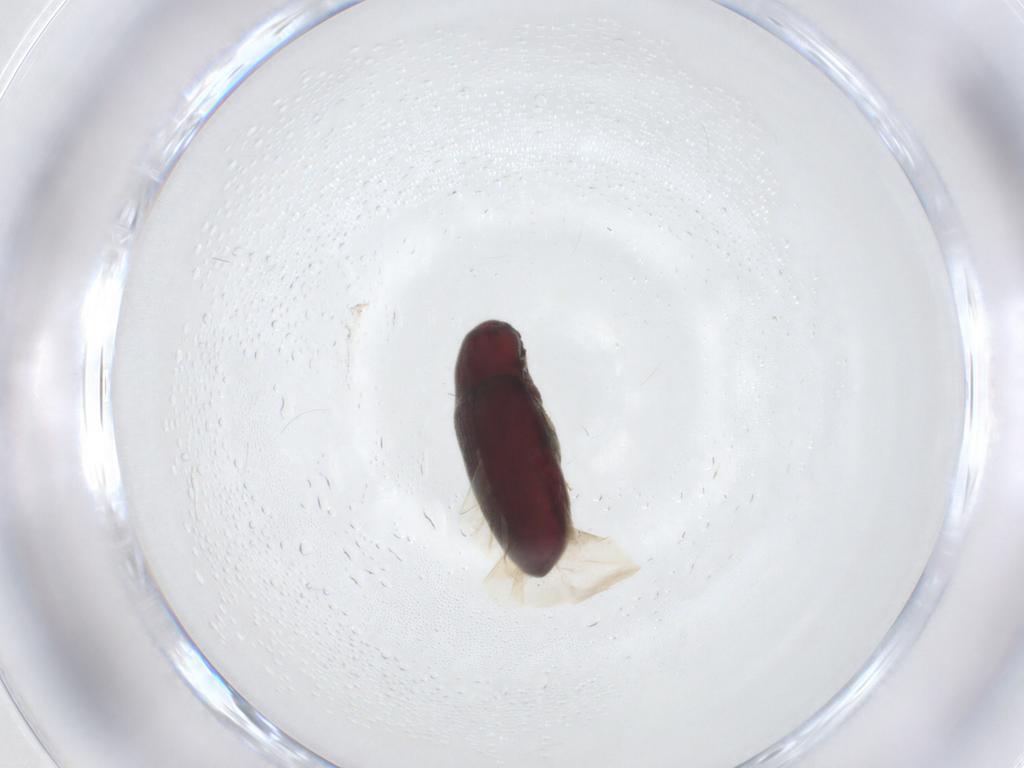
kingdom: Animalia
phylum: Arthropoda
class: Insecta
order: Coleoptera
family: Throscidae
